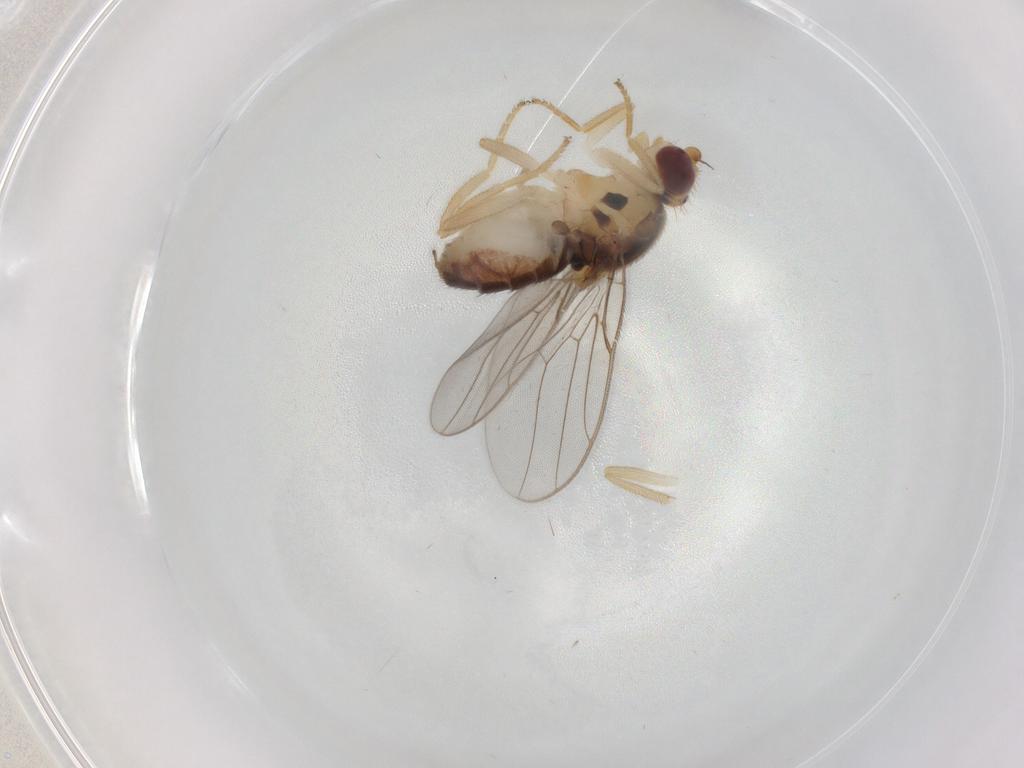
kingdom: Animalia
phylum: Arthropoda
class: Insecta
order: Diptera
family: Chloropidae
